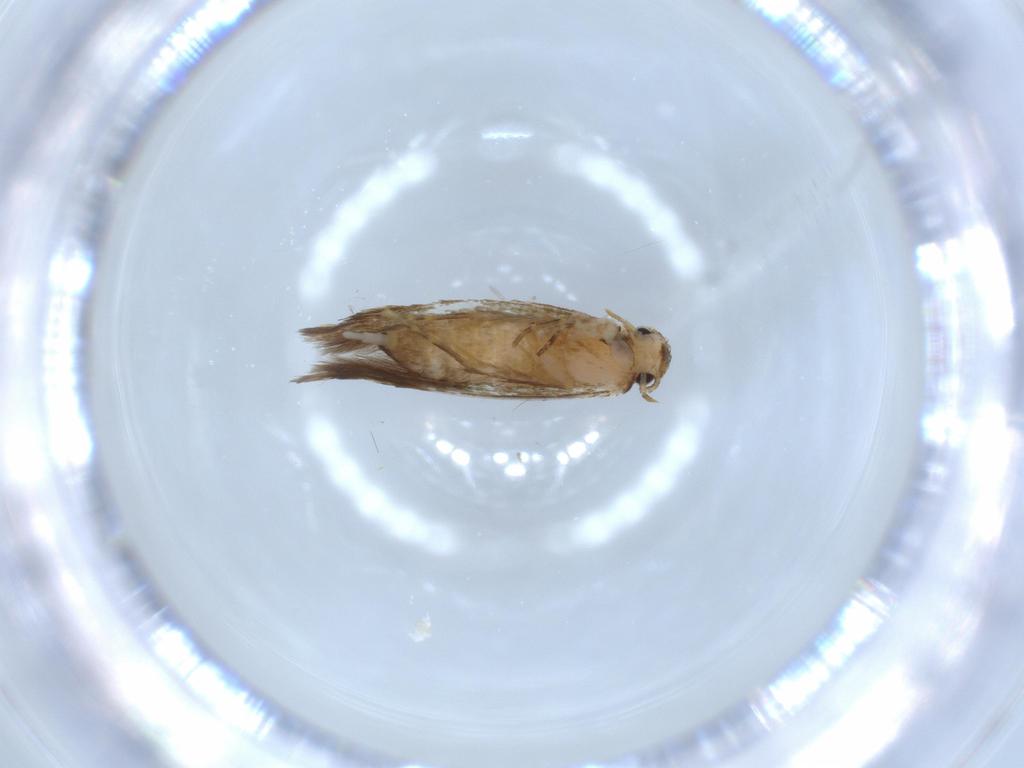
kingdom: Animalia
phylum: Arthropoda
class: Insecta
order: Lepidoptera
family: Tineidae
